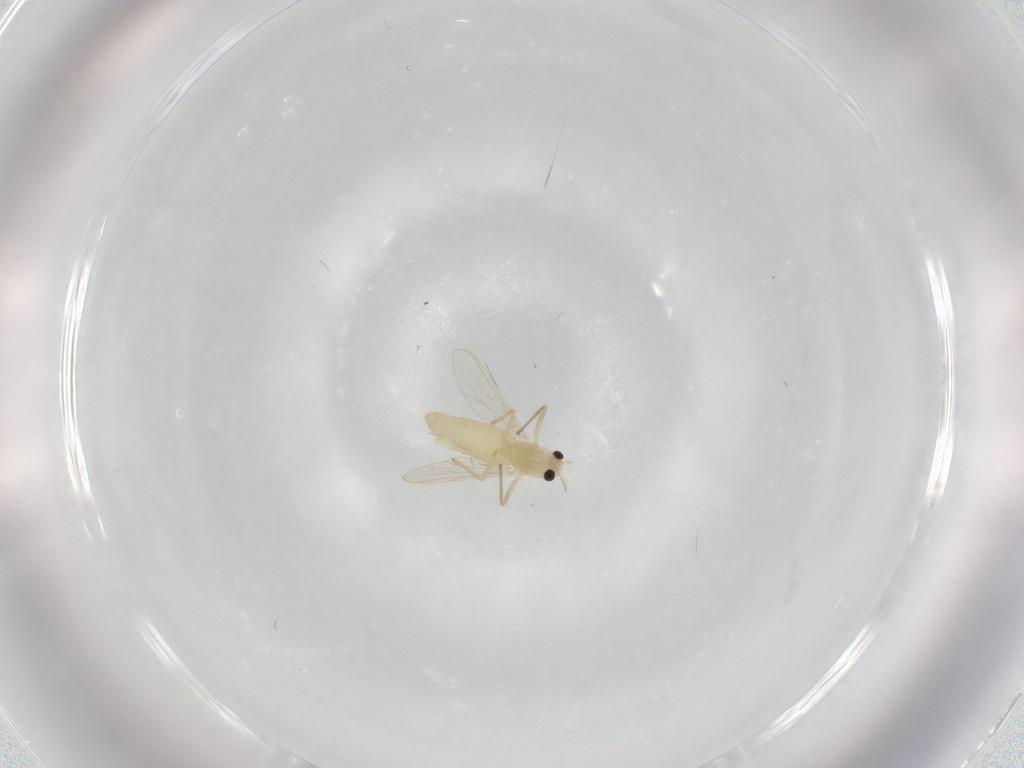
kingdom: Animalia
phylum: Arthropoda
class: Insecta
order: Diptera
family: Chironomidae
